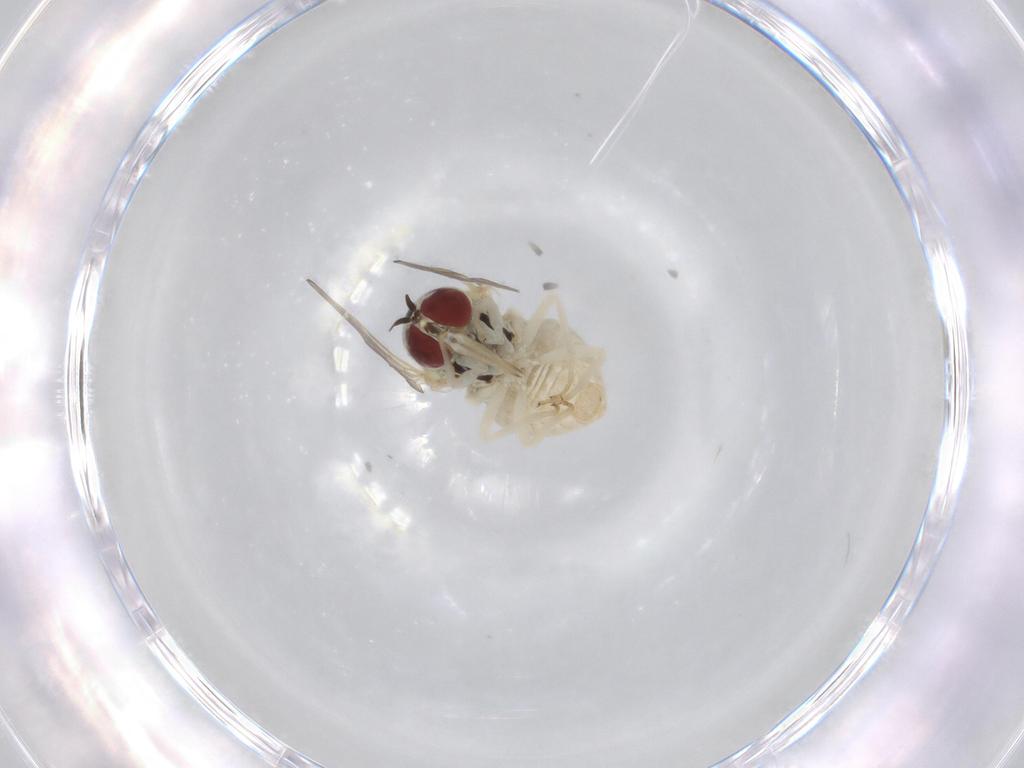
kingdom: Animalia
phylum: Arthropoda
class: Insecta
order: Diptera
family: Bombyliidae
